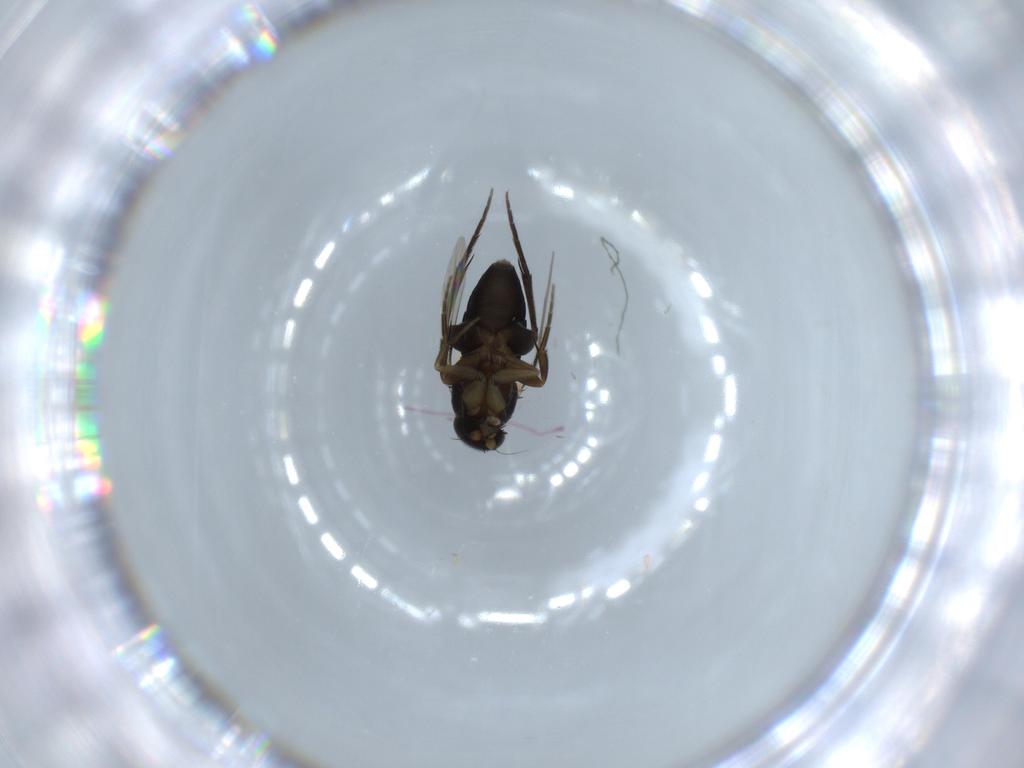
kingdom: Animalia
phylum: Arthropoda
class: Insecta
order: Diptera
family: Phoridae
